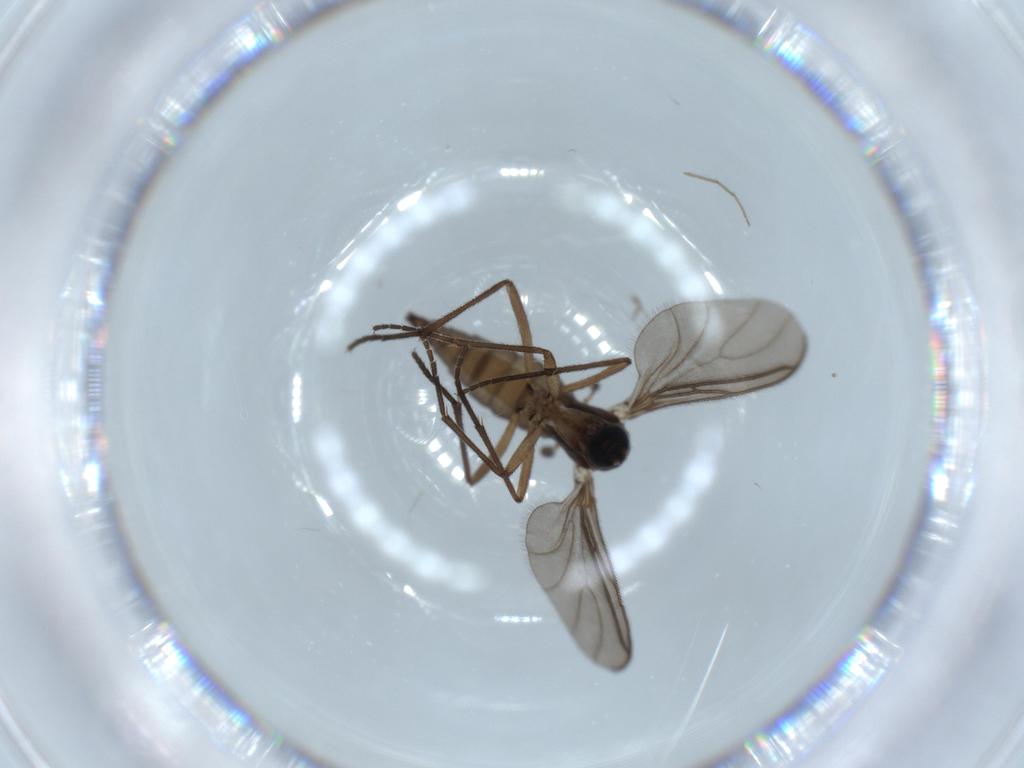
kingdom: Animalia
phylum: Arthropoda
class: Insecta
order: Diptera
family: Sciaridae
